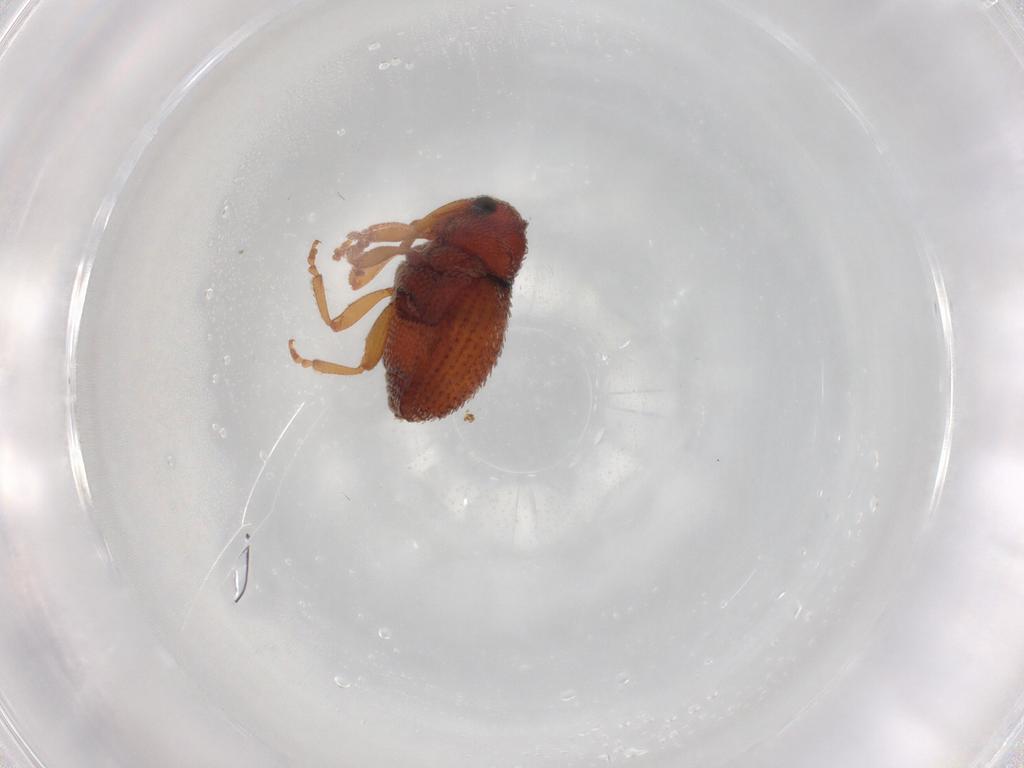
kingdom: Animalia
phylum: Arthropoda
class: Insecta
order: Coleoptera
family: Curculionidae
